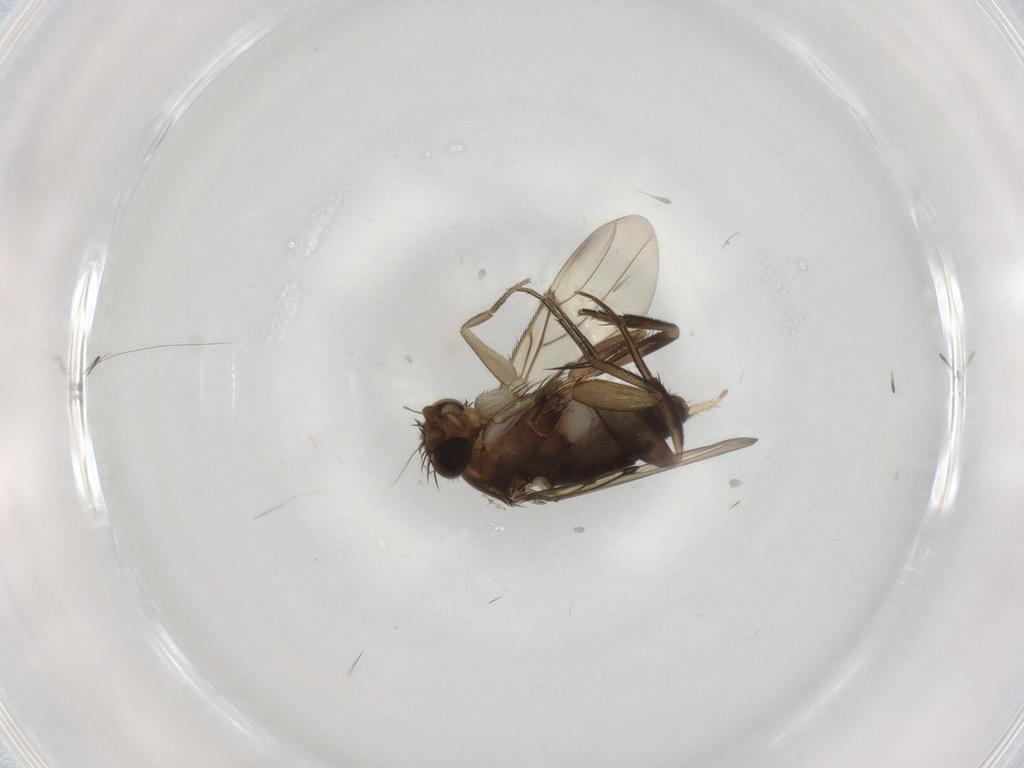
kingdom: Animalia
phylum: Arthropoda
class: Insecta
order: Diptera
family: Phoridae
